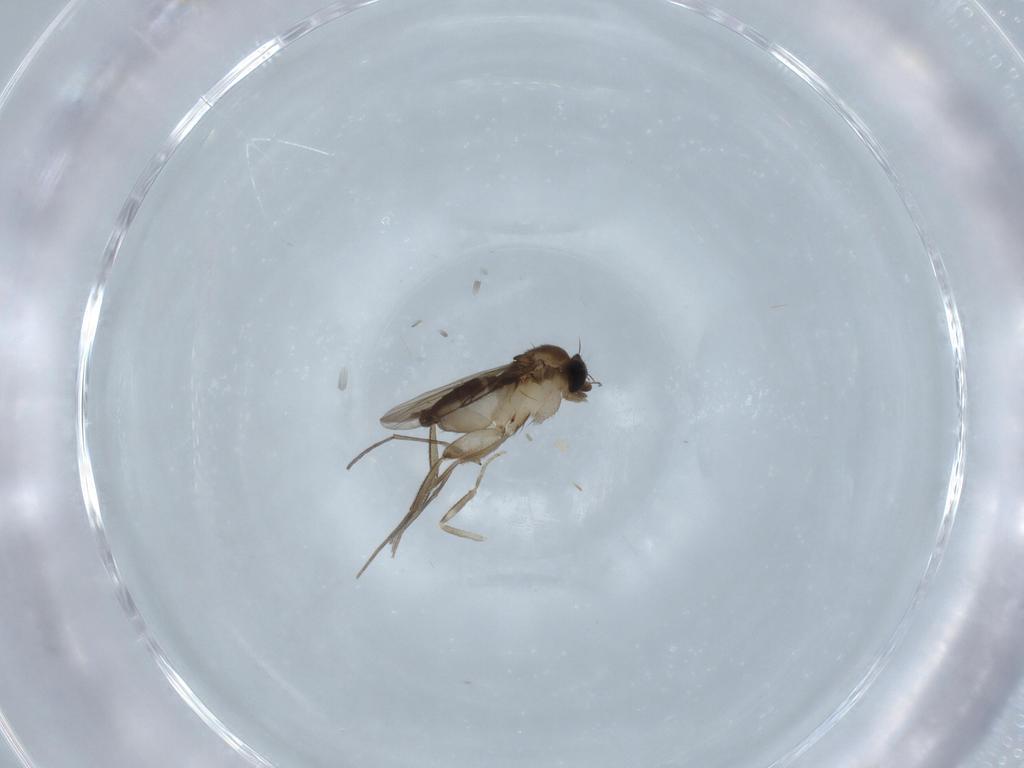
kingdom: Animalia
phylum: Arthropoda
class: Insecta
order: Diptera
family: Phoridae
